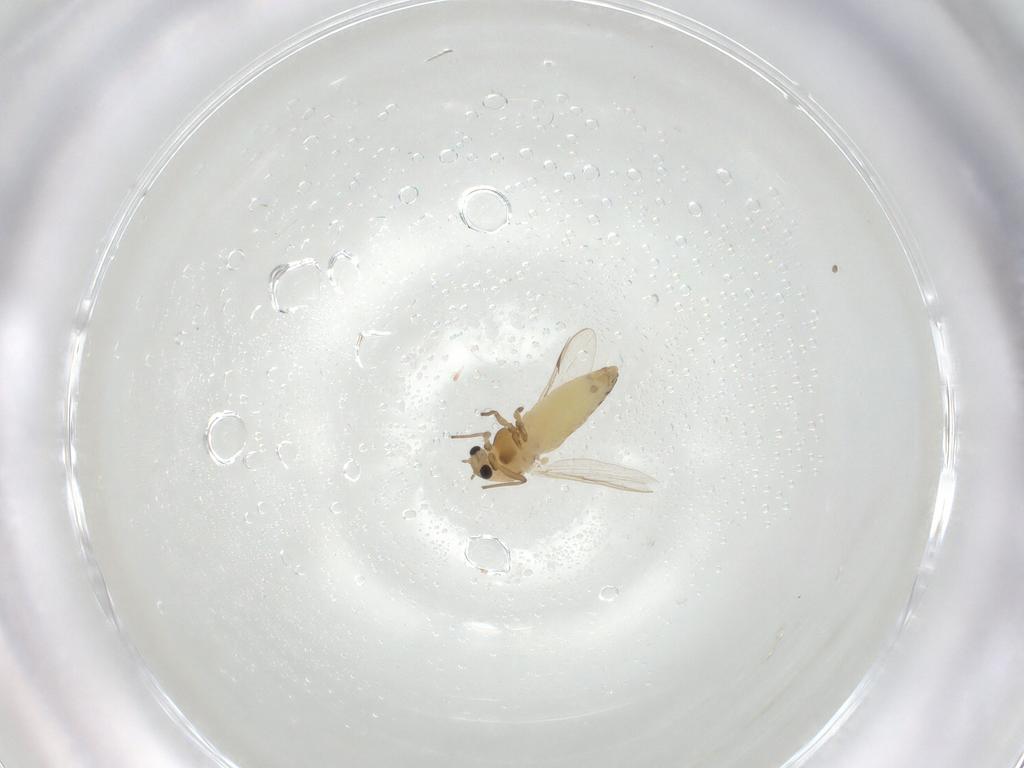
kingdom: Animalia
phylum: Arthropoda
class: Insecta
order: Diptera
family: Chironomidae
